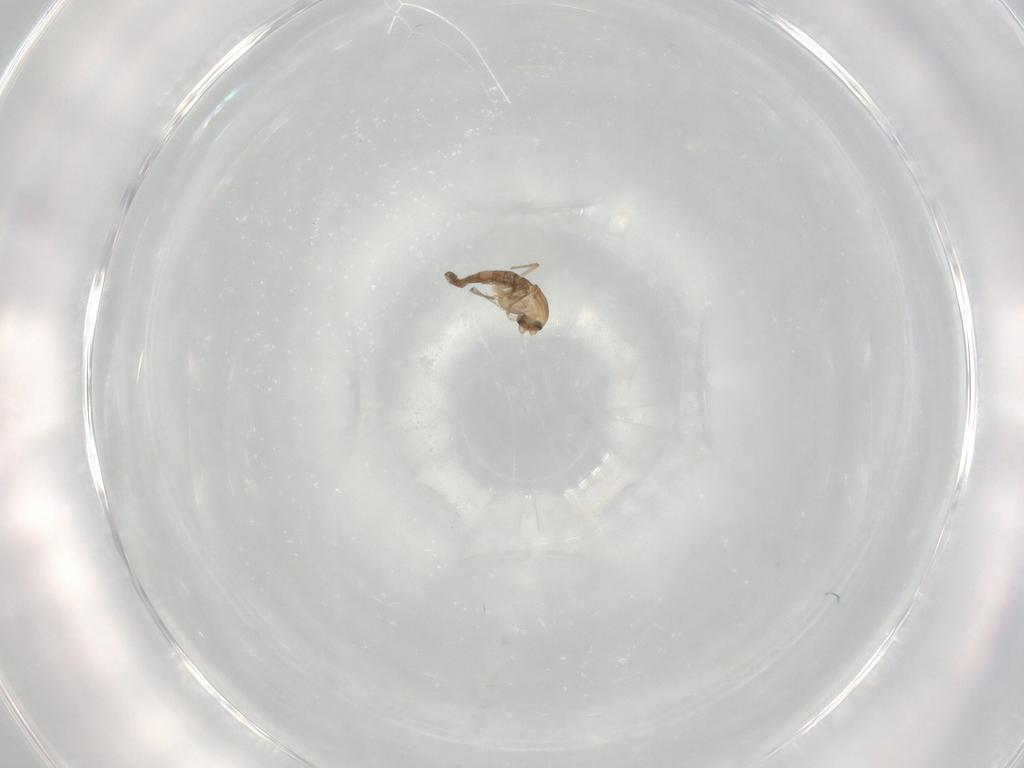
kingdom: Animalia
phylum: Arthropoda
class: Insecta
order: Diptera
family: Chironomidae
